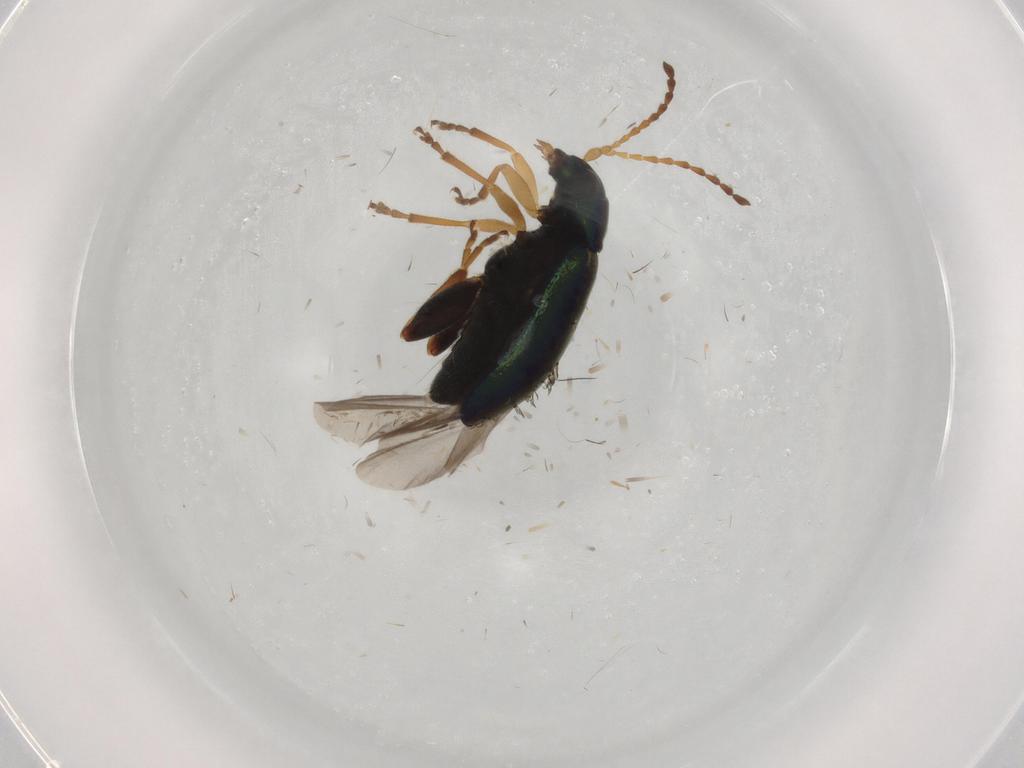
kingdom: Animalia
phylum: Arthropoda
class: Insecta
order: Coleoptera
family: Chrysomelidae
